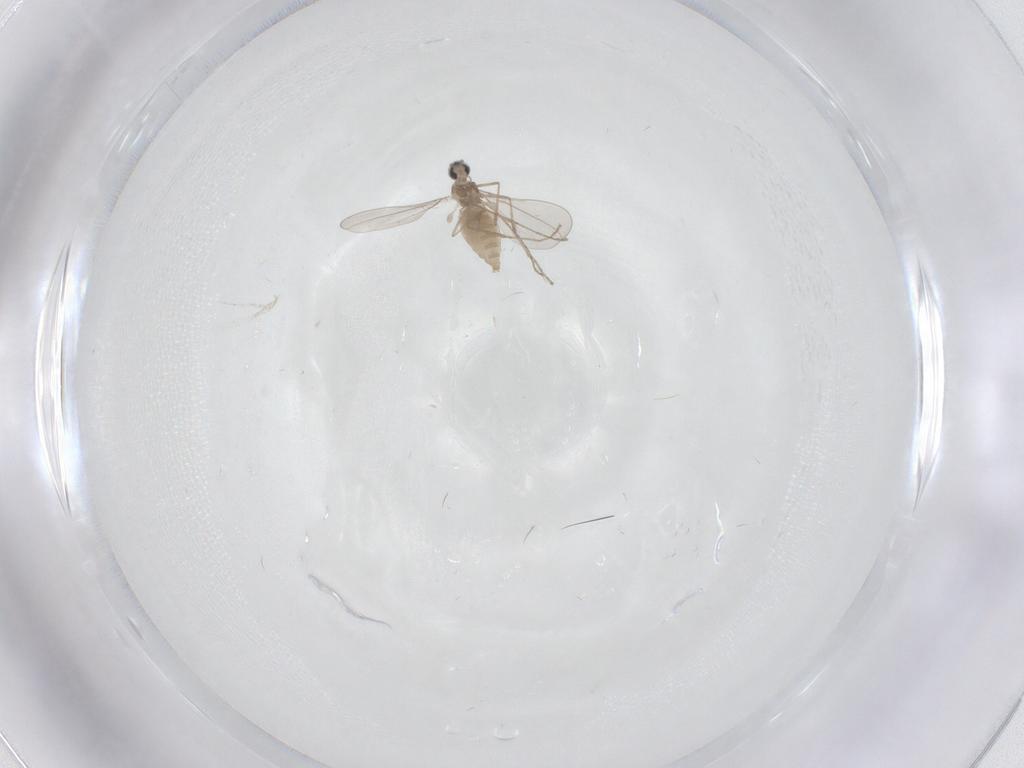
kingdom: Animalia
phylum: Arthropoda
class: Insecta
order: Diptera
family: Cecidomyiidae
